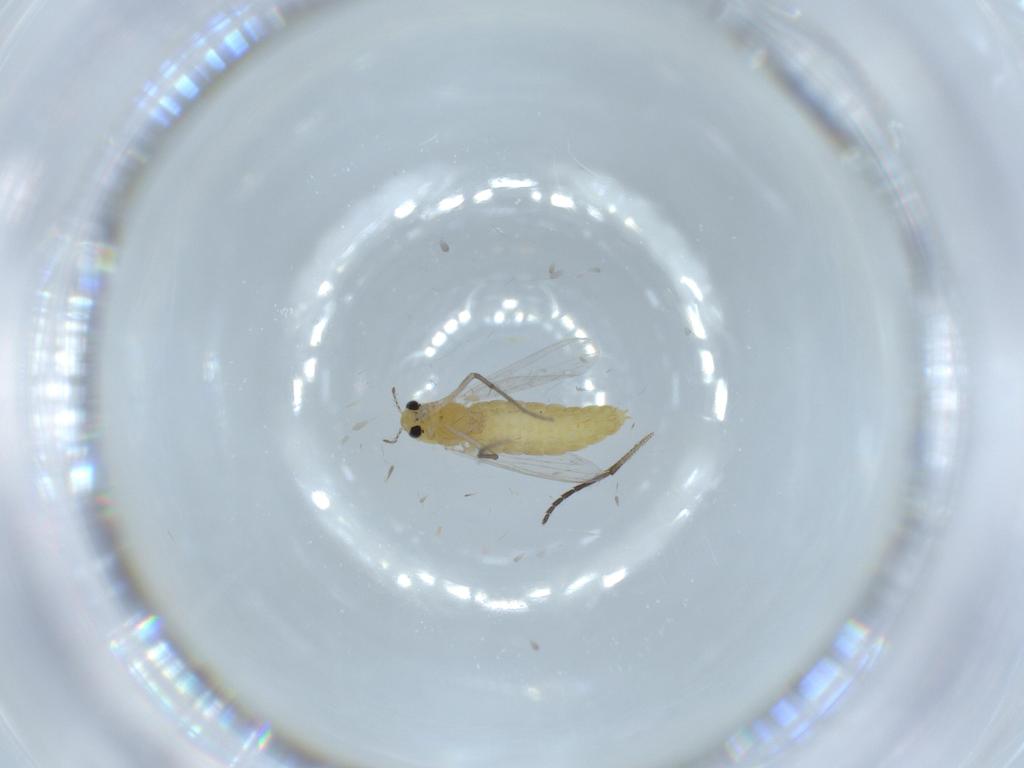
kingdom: Animalia
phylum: Arthropoda
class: Insecta
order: Diptera
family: Chironomidae
